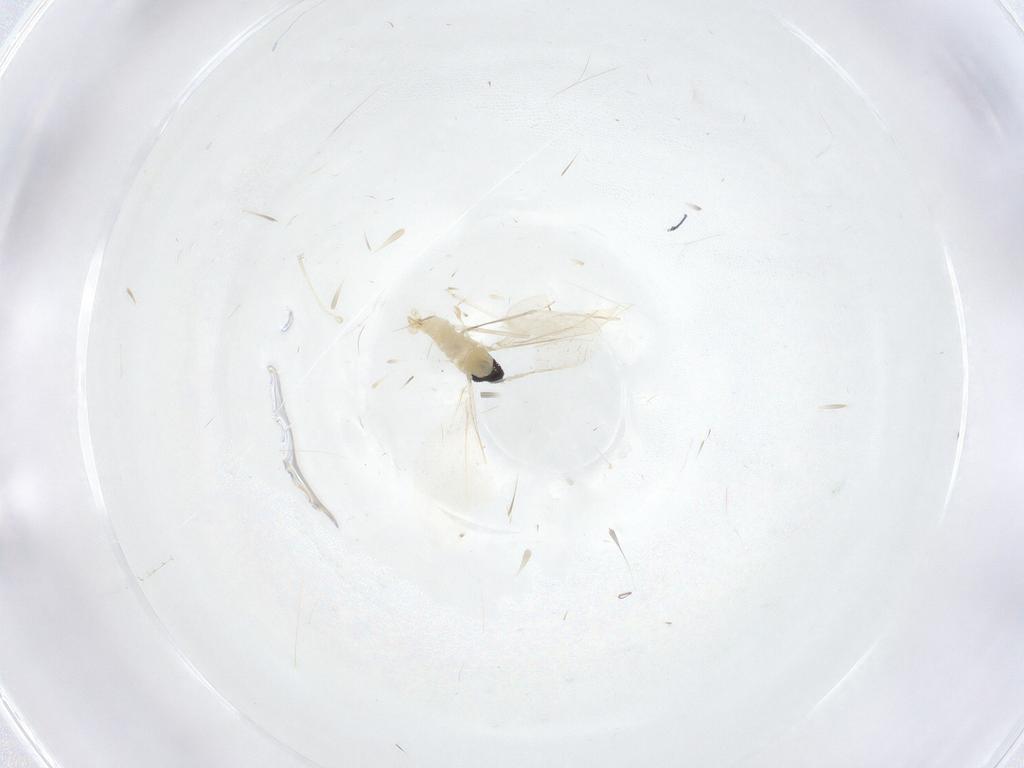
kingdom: Animalia
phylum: Arthropoda
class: Insecta
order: Diptera
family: Cecidomyiidae
